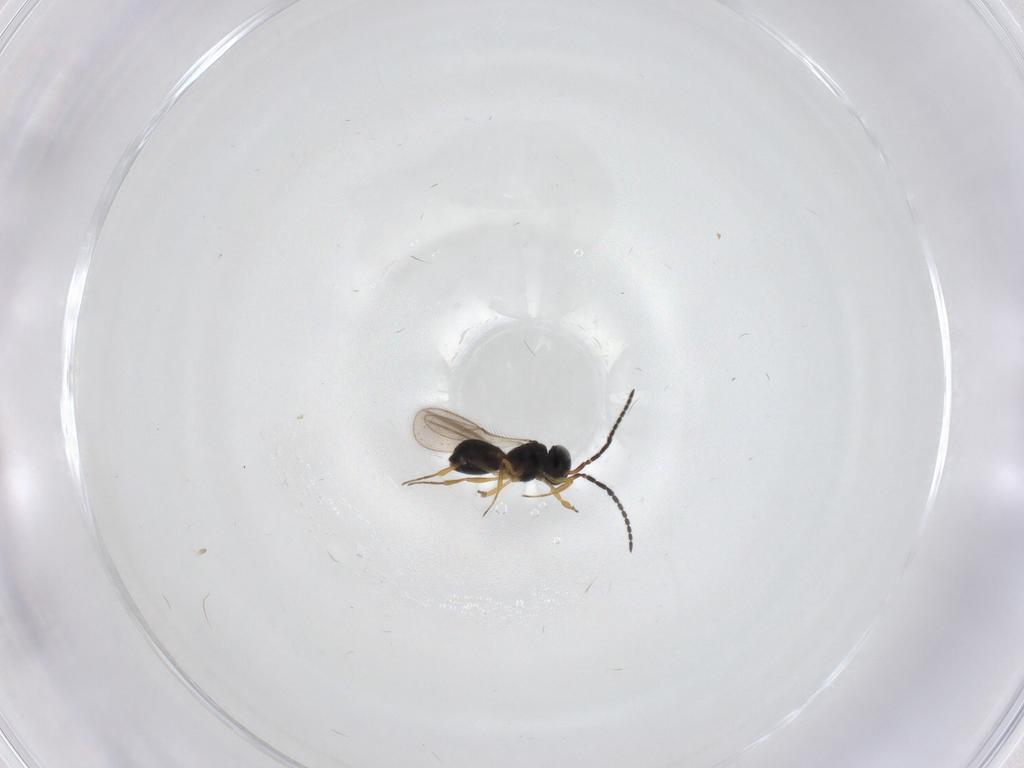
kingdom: Animalia
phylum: Arthropoda
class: Insecta
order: Hymenoptera
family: Scelionidae
